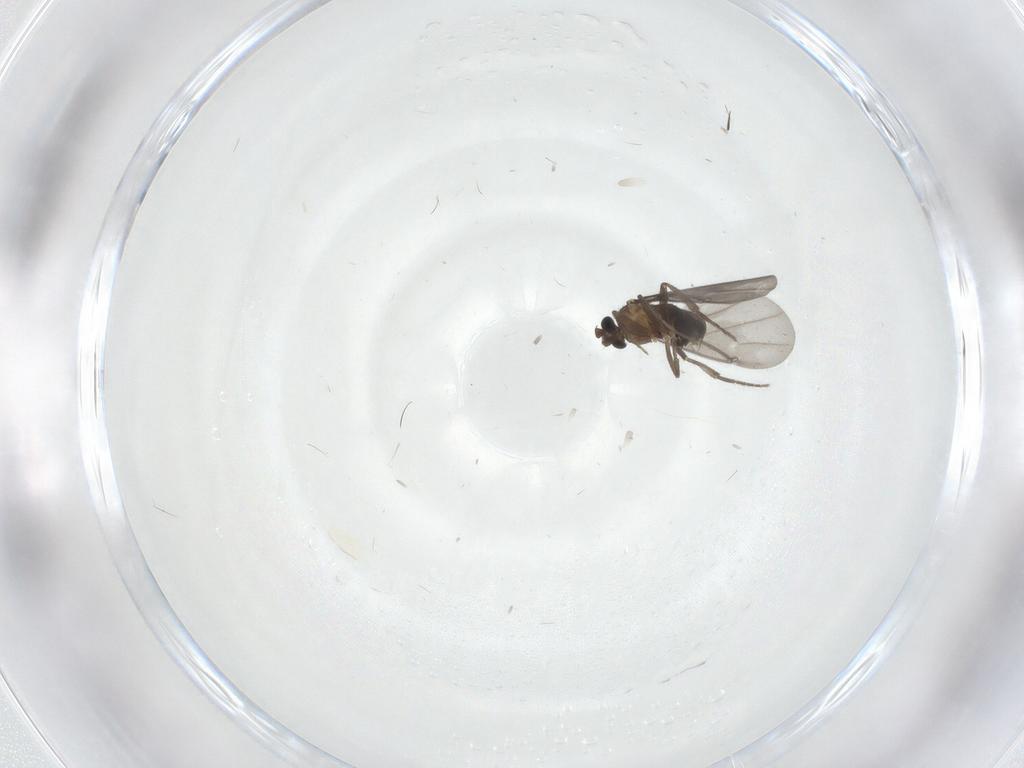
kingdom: Animalia
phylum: Arthropoda
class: Insecta
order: Diptera
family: Phoridae
